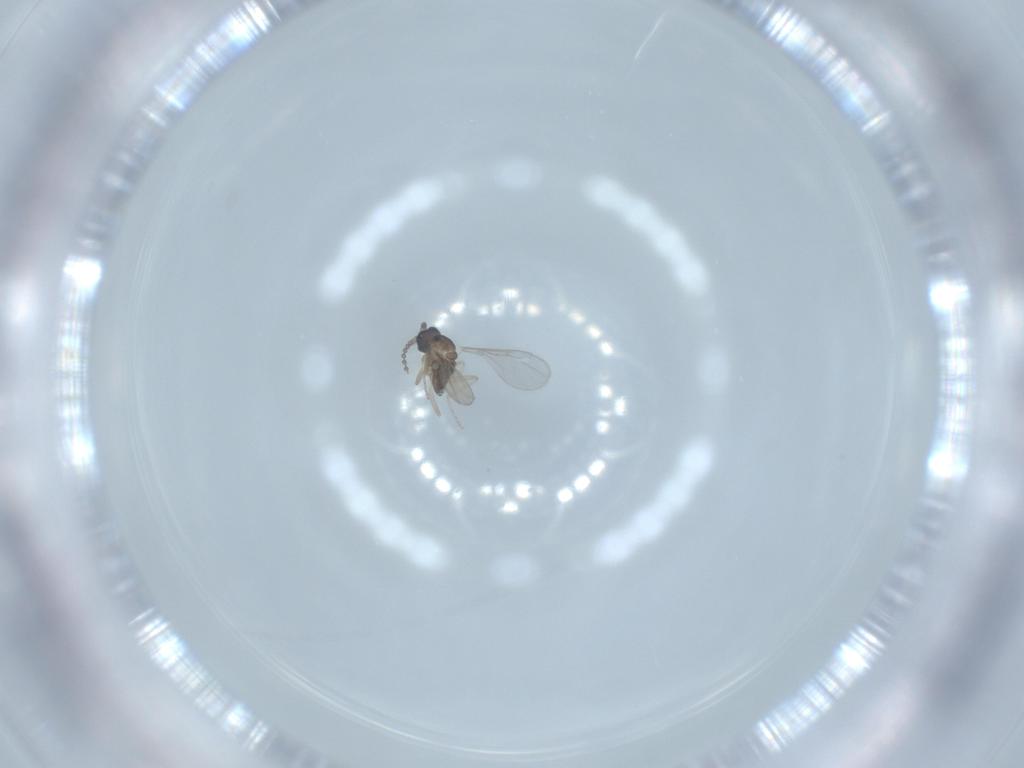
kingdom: Animalia
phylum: Arthropoda
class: Insecta
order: Diptera
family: Cecidomyiidae
